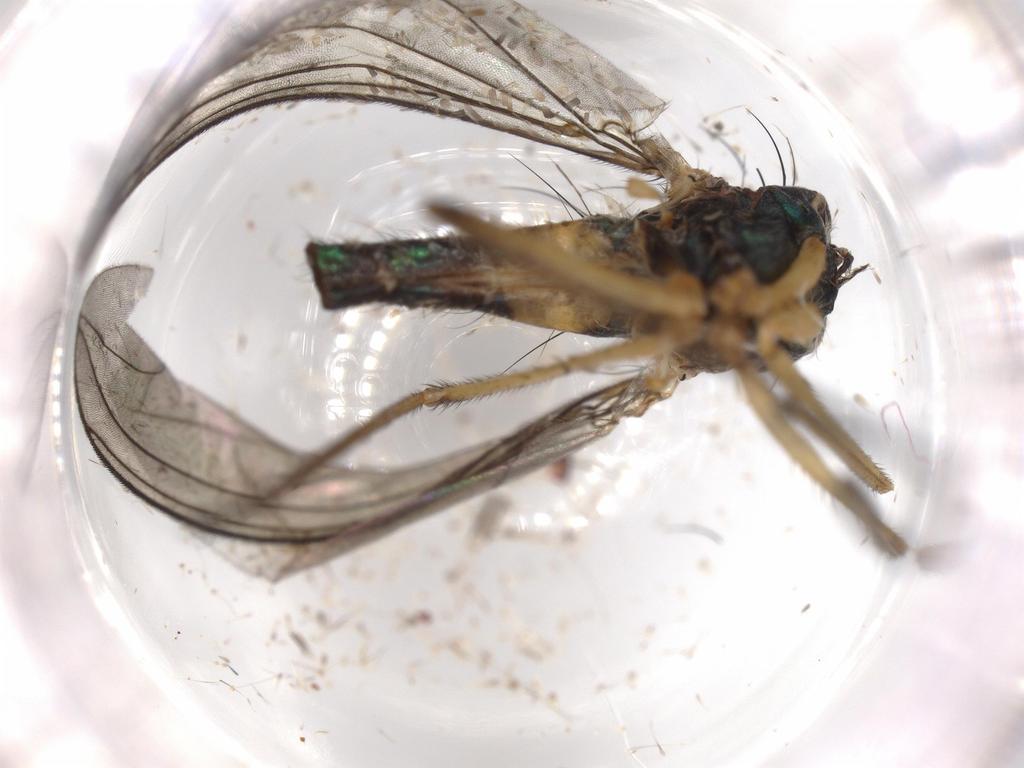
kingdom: Animalia
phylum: Arthropoda
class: Insecta
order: Diptera
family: Dolichopodidae
